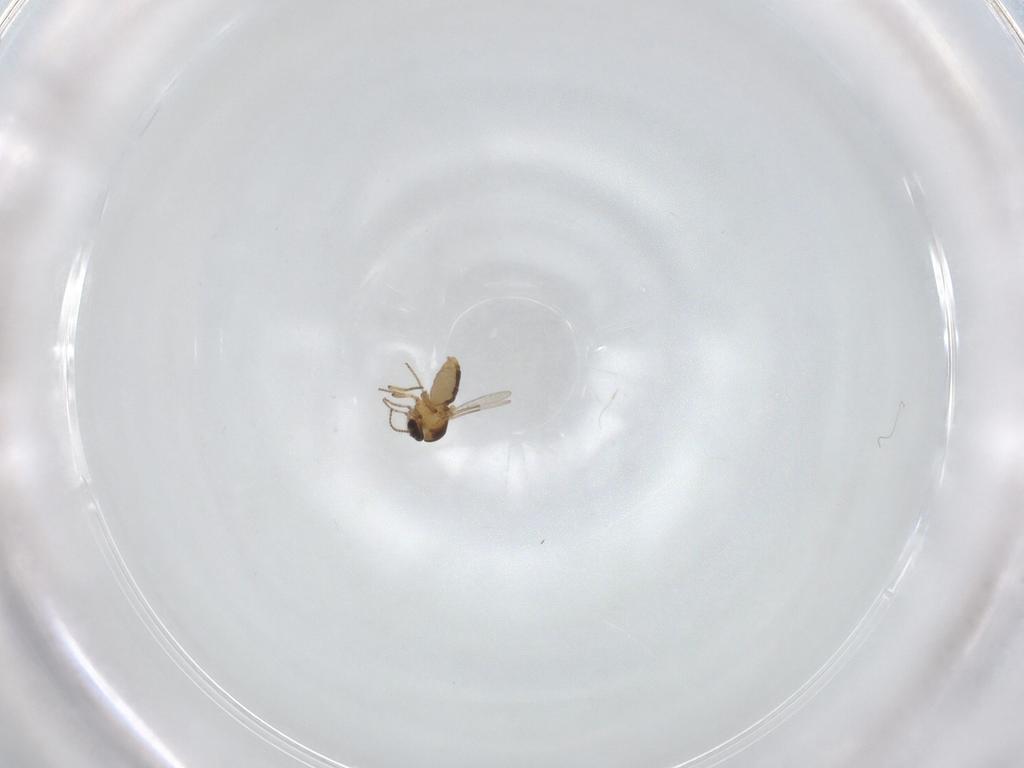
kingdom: Animalia
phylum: Arthropoda
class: Insecta
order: Diptera
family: Ceratopogonidae
